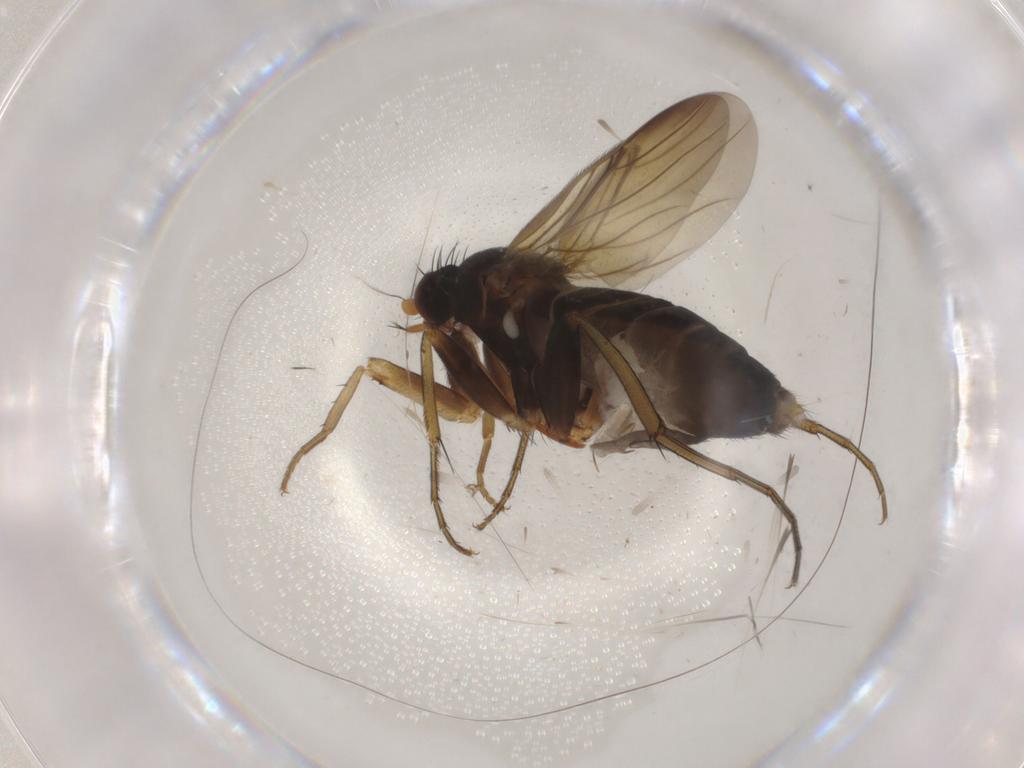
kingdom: Animalia
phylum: Arthropoda
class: Insecta
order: Diptera
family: Phoridae
